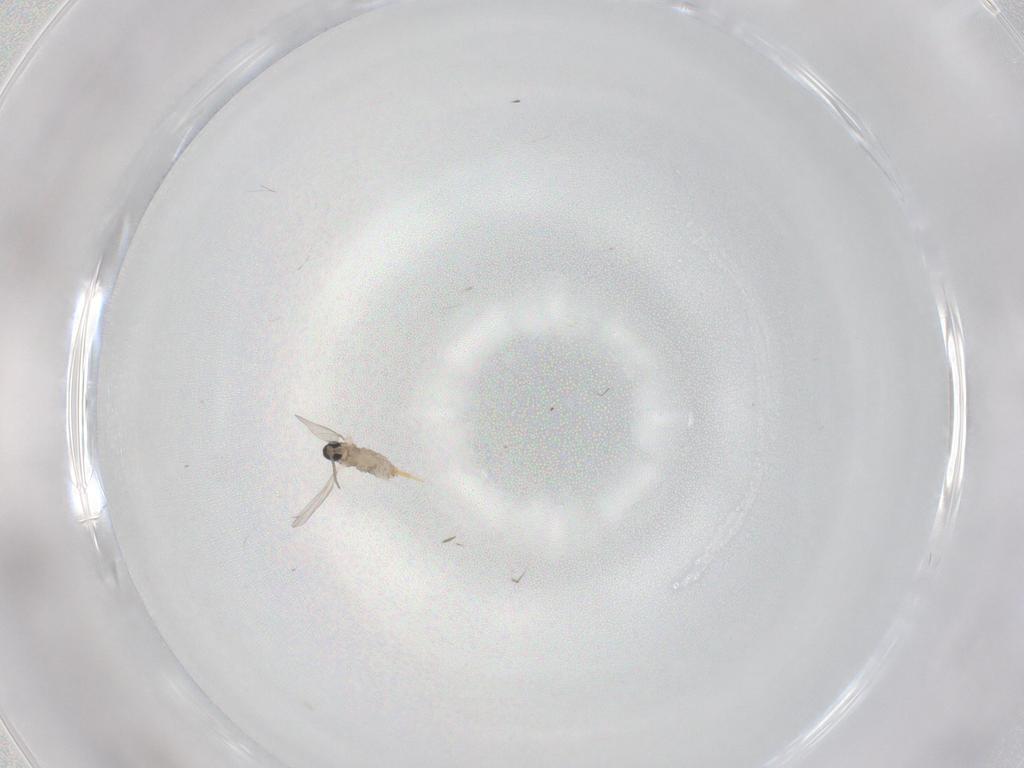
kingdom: Animalia
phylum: Arthropoda
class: Insecta
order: Diptera
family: Cecidomyiidae
